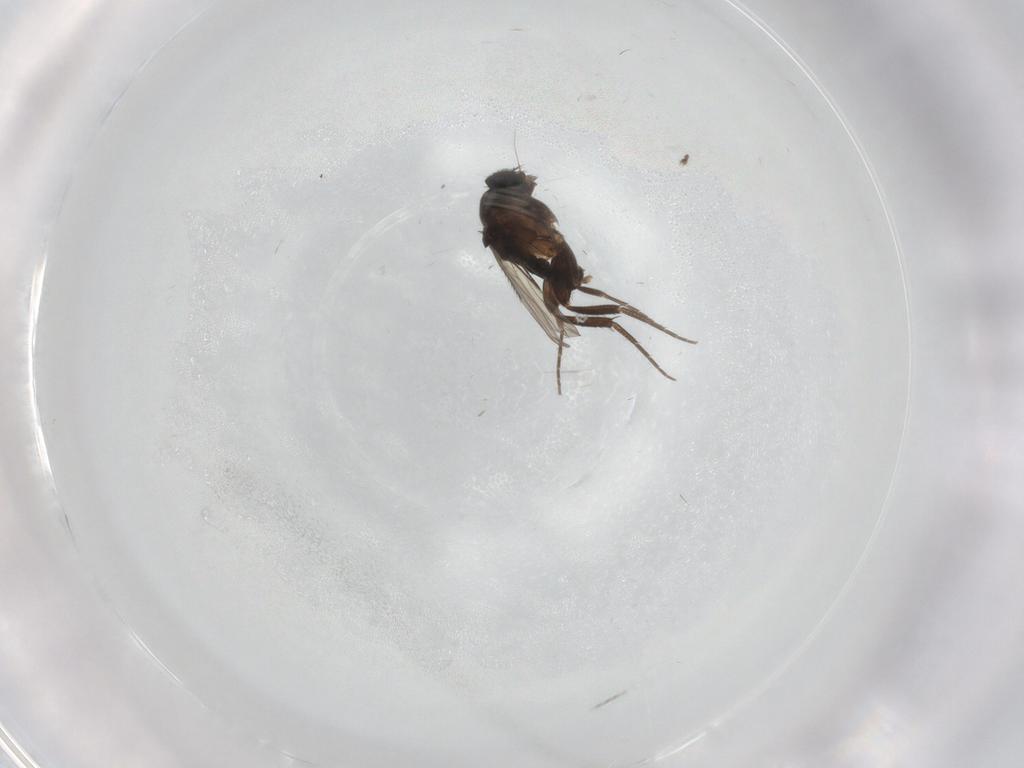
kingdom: Animalia
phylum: Arthropoda
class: Insecta
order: Diptera
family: Phoridae
